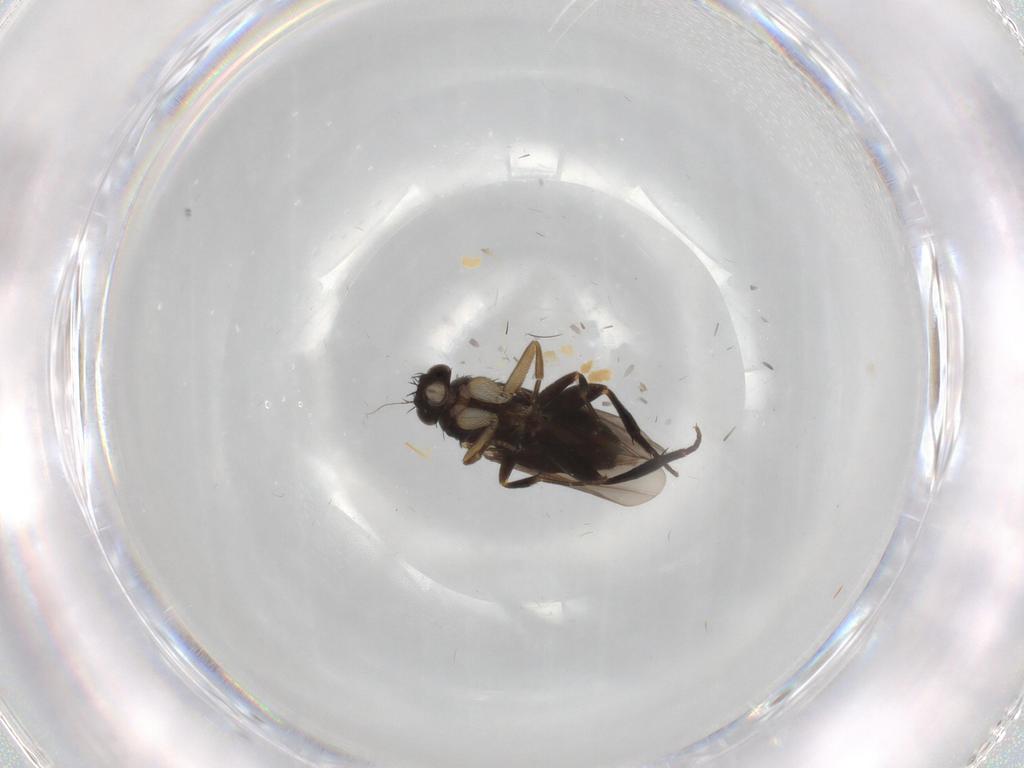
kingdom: Animalia
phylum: Arthropoda
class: Insecta
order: Diptera
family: Phoridae
